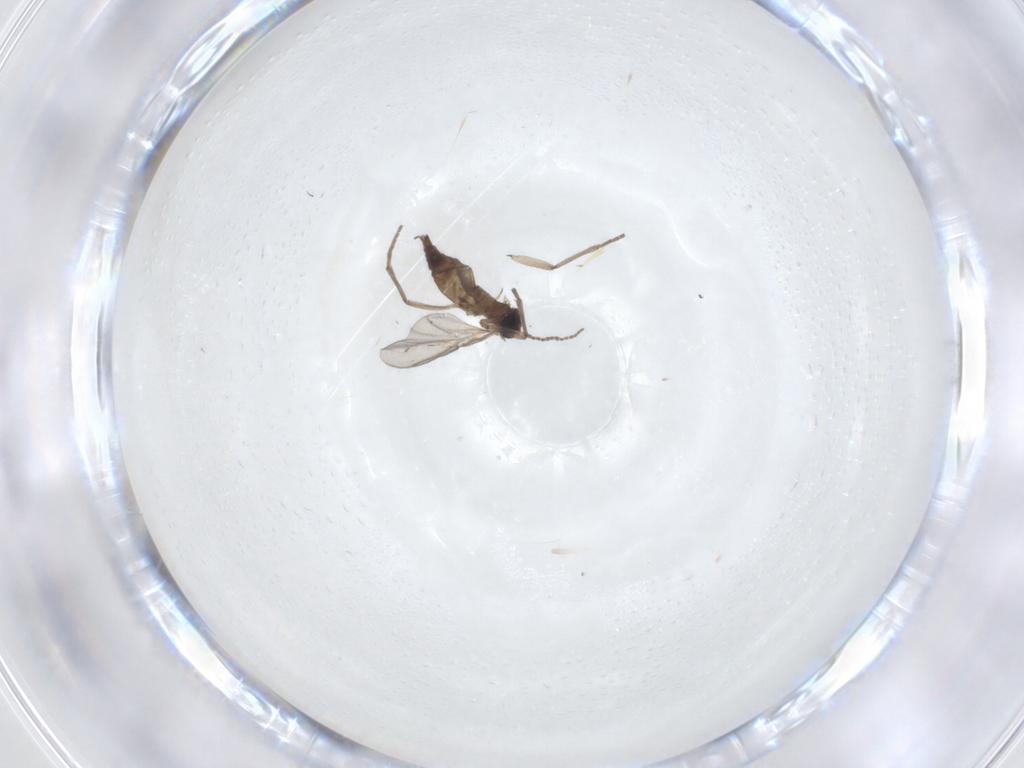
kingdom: Animalia
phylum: Arthropoda
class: Insecta
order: Diptera
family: Sciaridae
